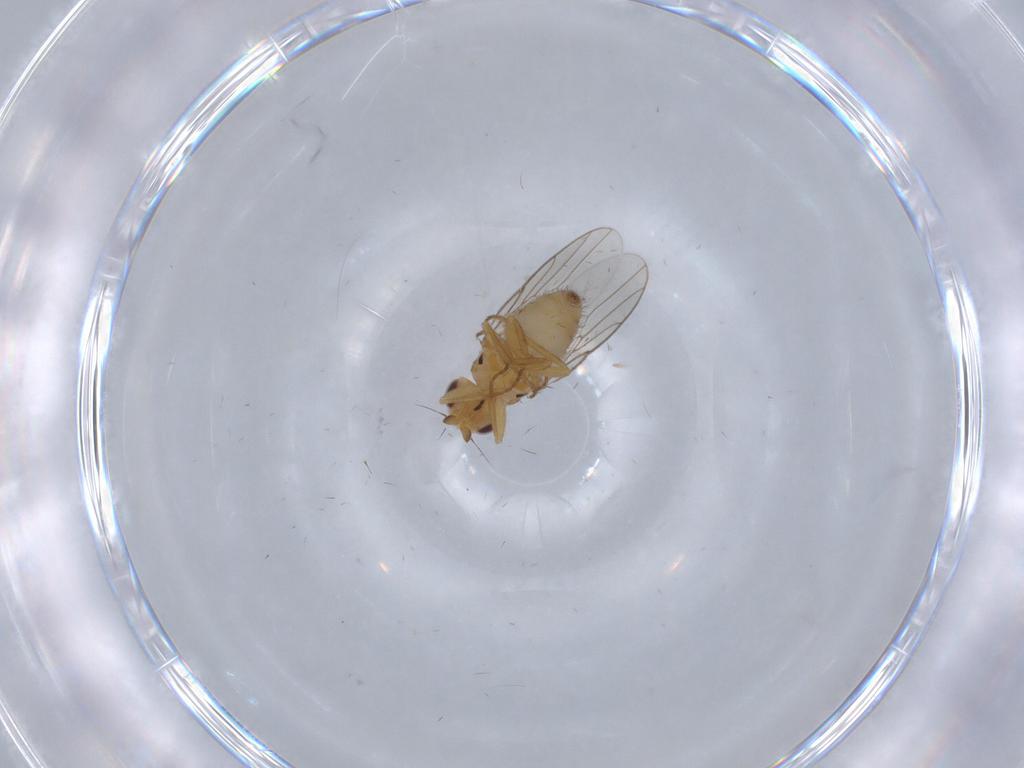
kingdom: Animalia
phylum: Arthropoda
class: Insecta
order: Diptera
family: Chloropidae
